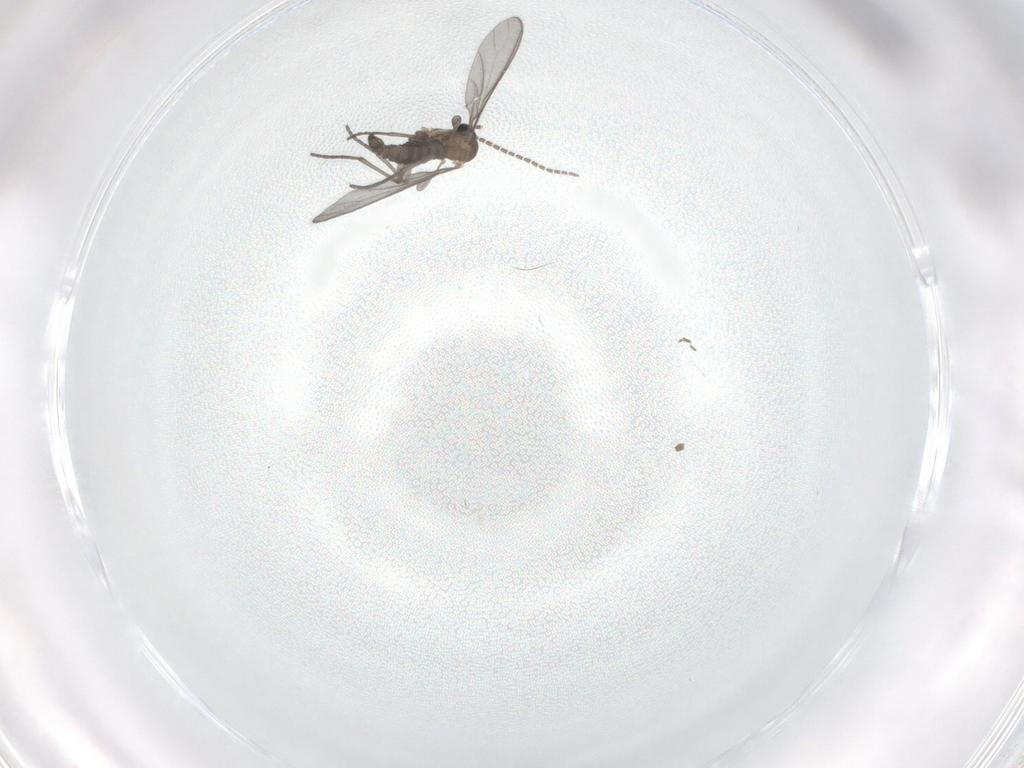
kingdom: Animalia
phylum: Arthropoda
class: Insecta
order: Diptera
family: Sciaridae
